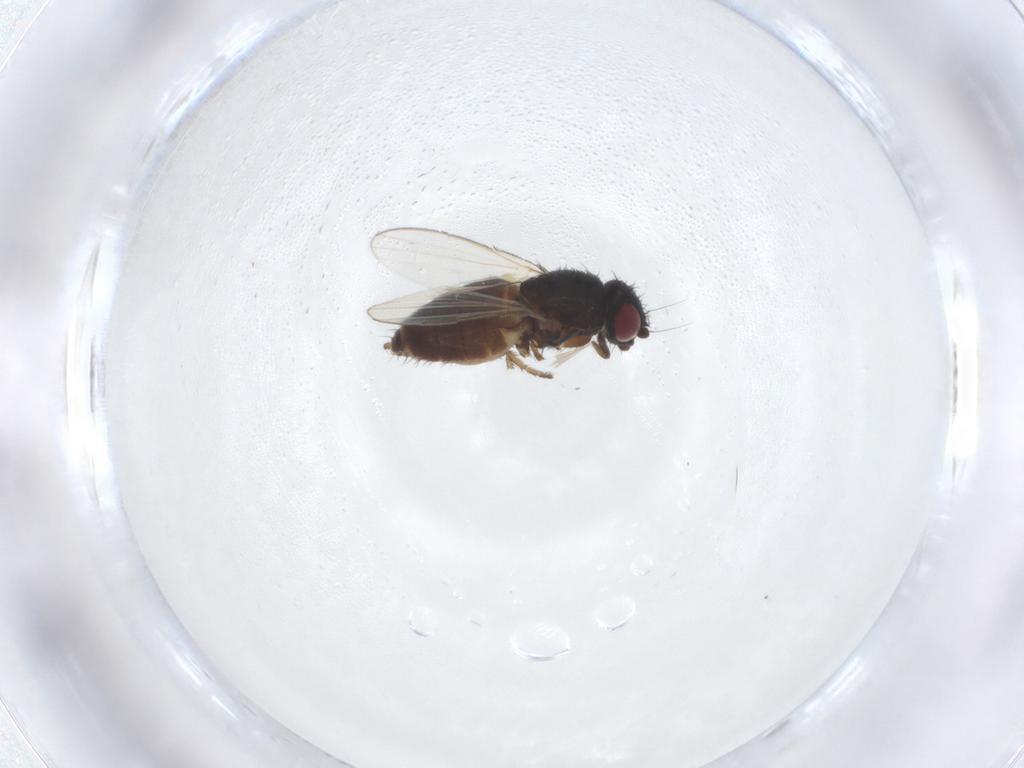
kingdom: Animalia
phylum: Arthropoda
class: Insecta
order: Diptera
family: Milichiidae
